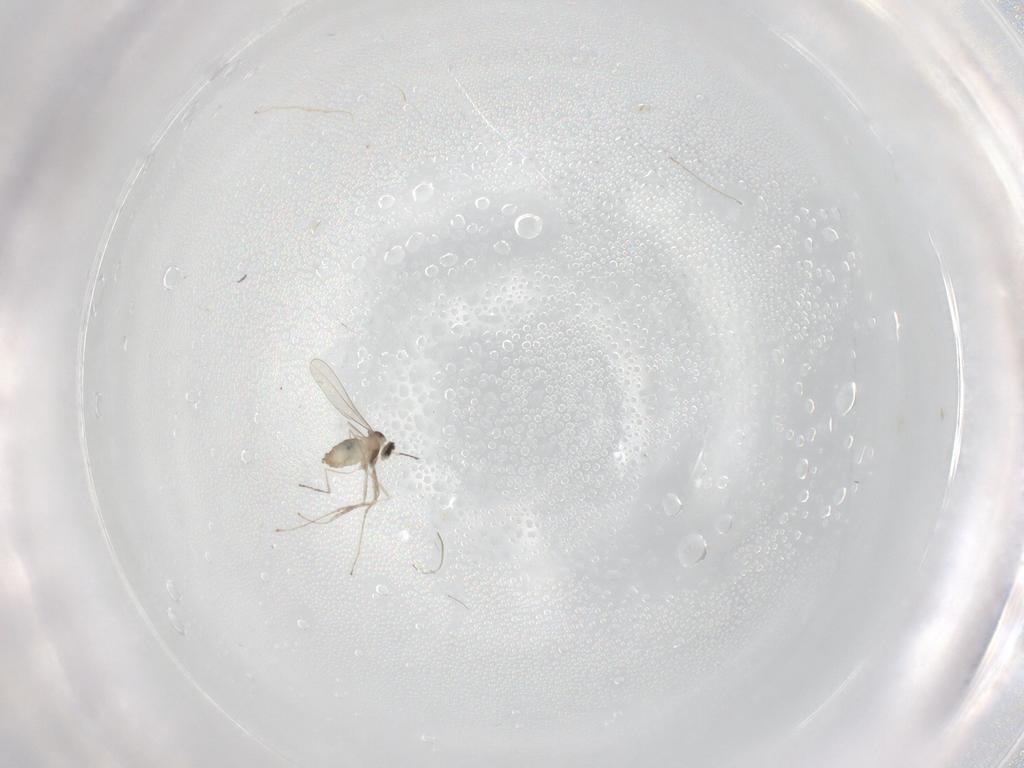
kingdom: Animalia
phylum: Arthropoda
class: Insecta
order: Diptera
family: Cecidomyiidae
